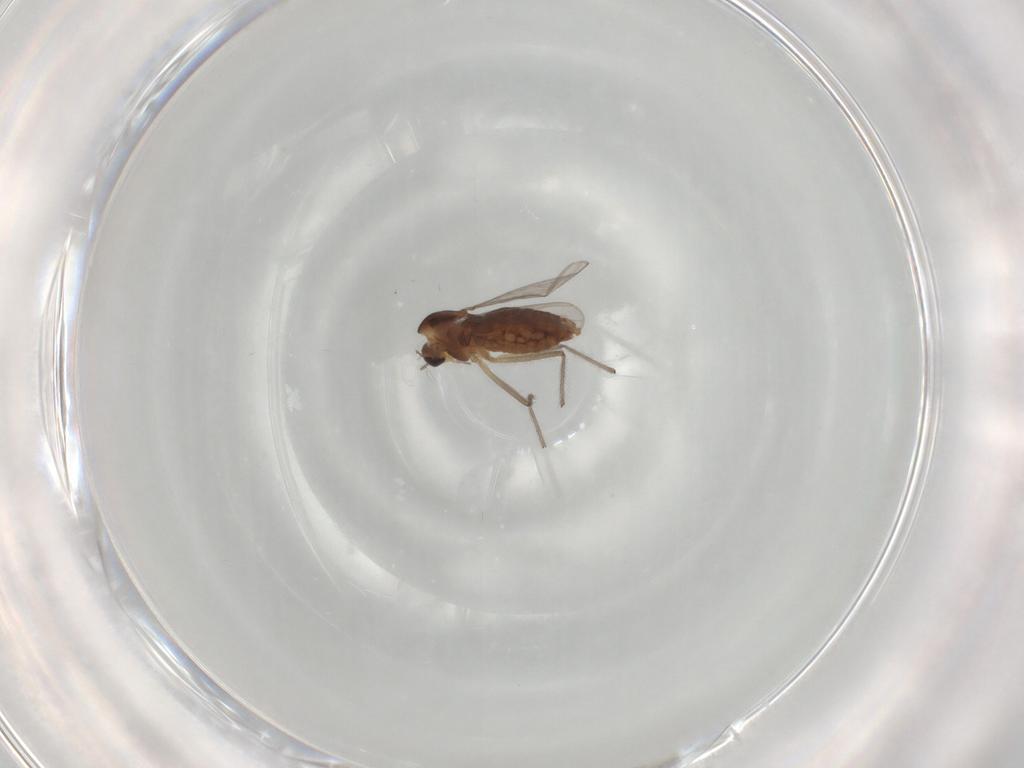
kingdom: Animalia
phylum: Arthropoda
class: Insecta
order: Diptera
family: Chironomidae
